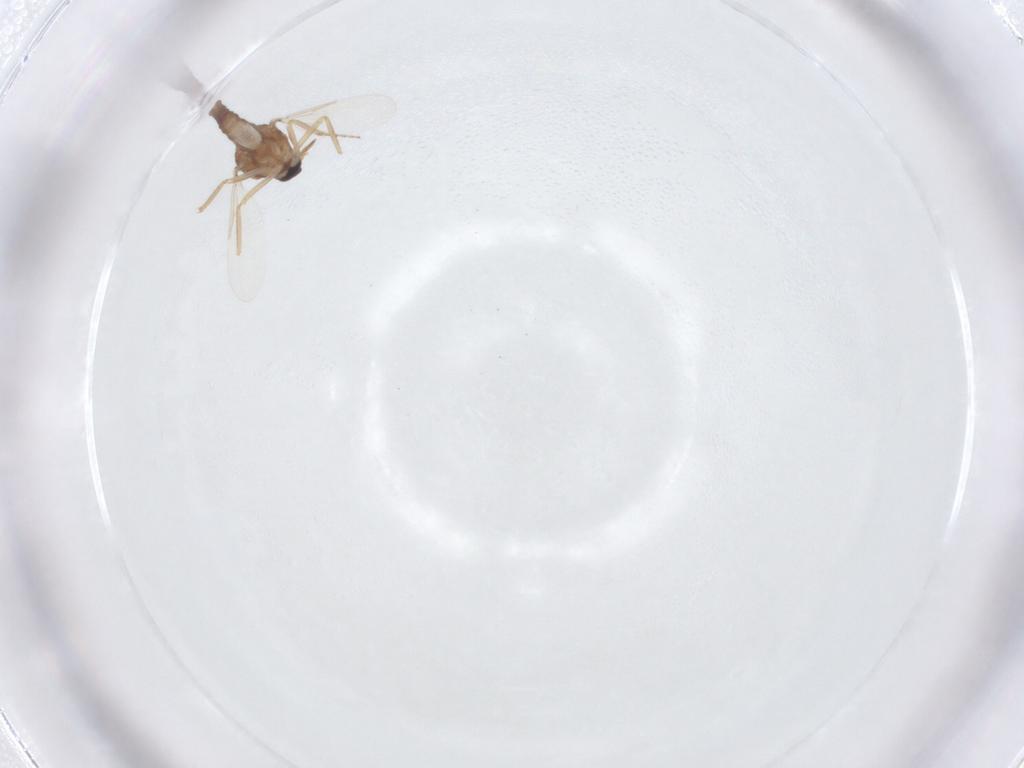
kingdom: Animalia
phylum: Arthropoda
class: Insecta
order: Diptera
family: Ceratopogonidae
